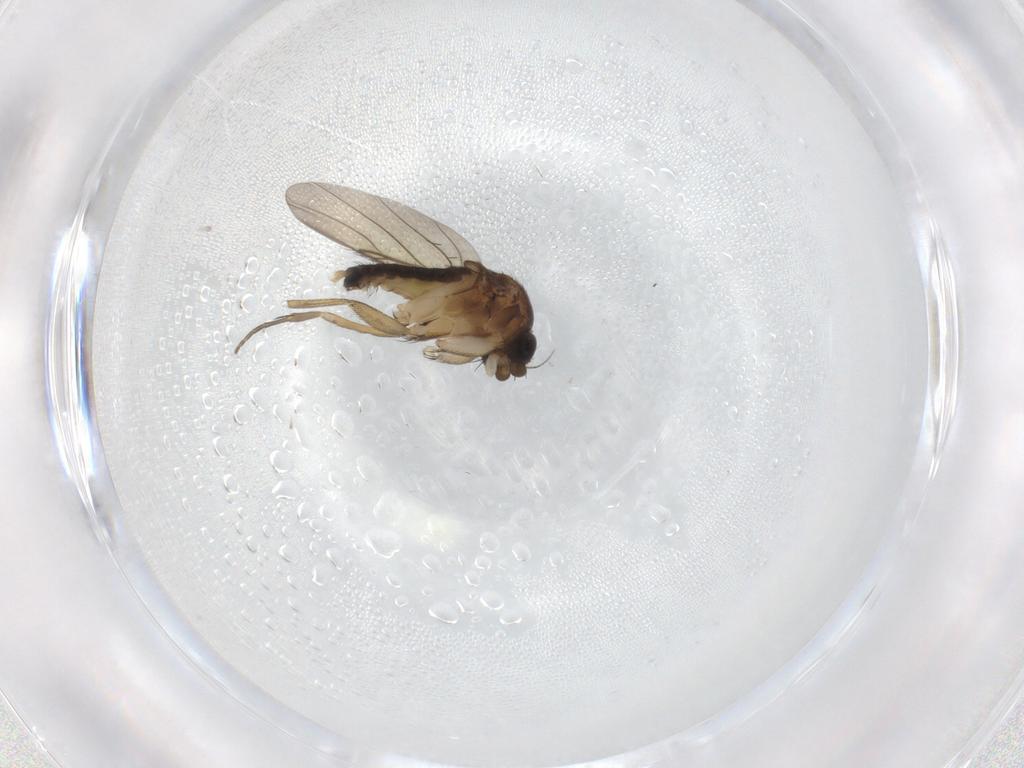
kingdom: Animalia
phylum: Arthropoda
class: Insecta
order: Diptera
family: Phoridae
